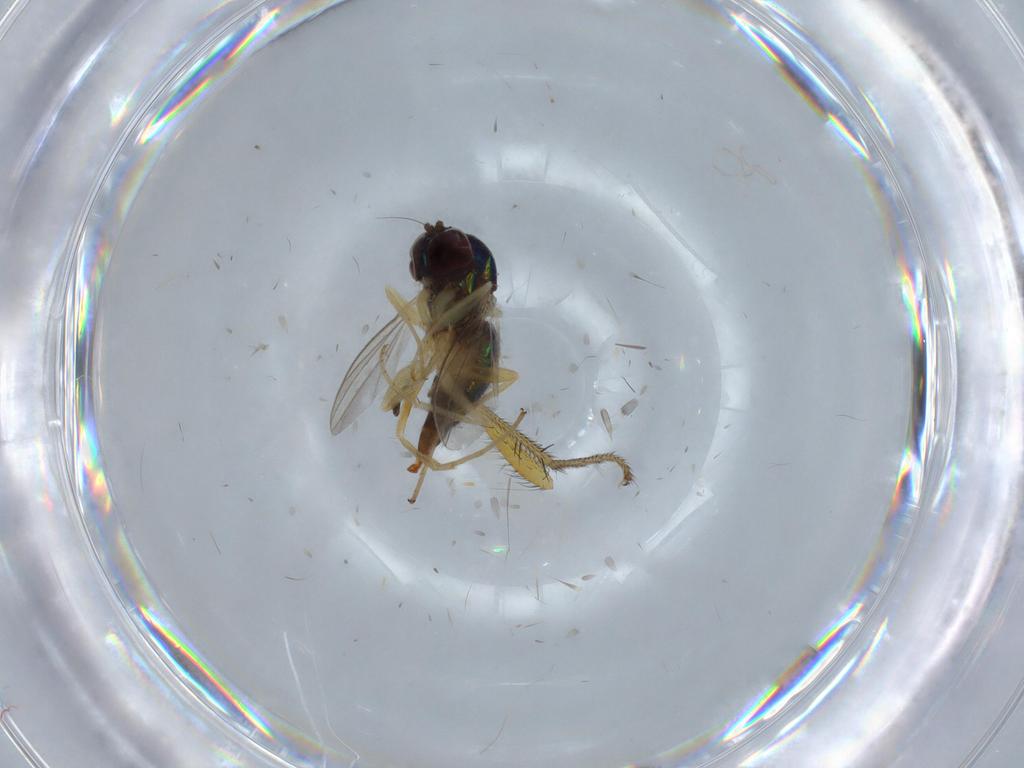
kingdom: Animalia
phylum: Arthropoda
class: Insecta
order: Diptera
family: Dolichopodidae
